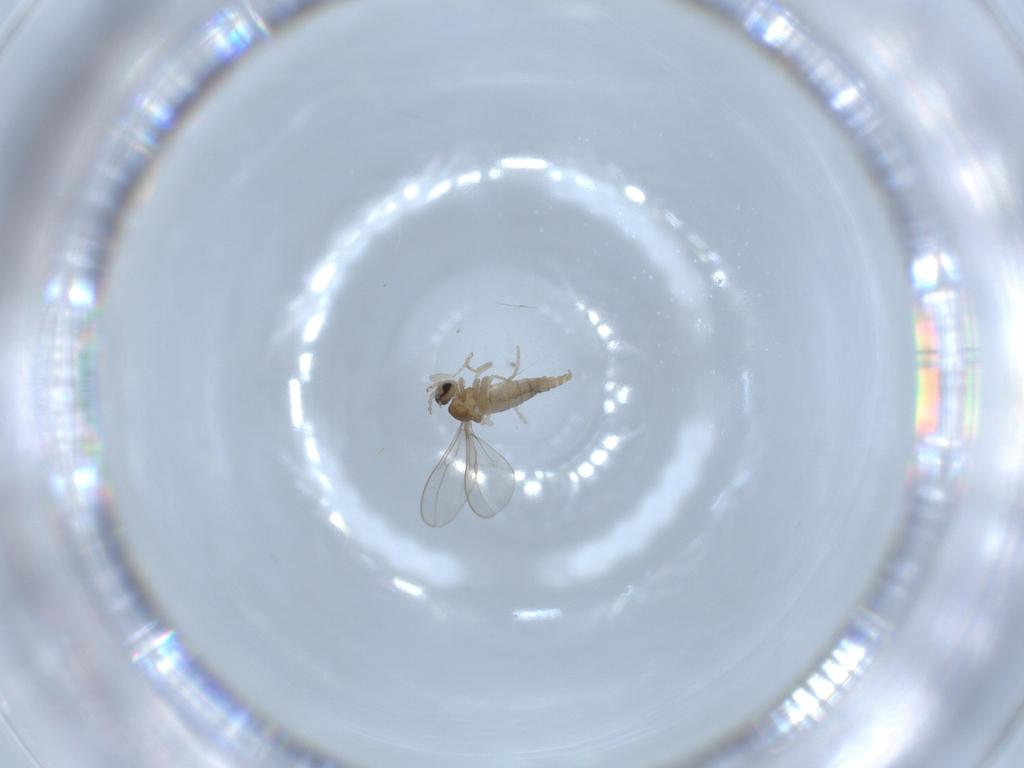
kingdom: Animalia
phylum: Arthropoda
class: Insecta
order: Diptera
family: Cecidomyiidae
